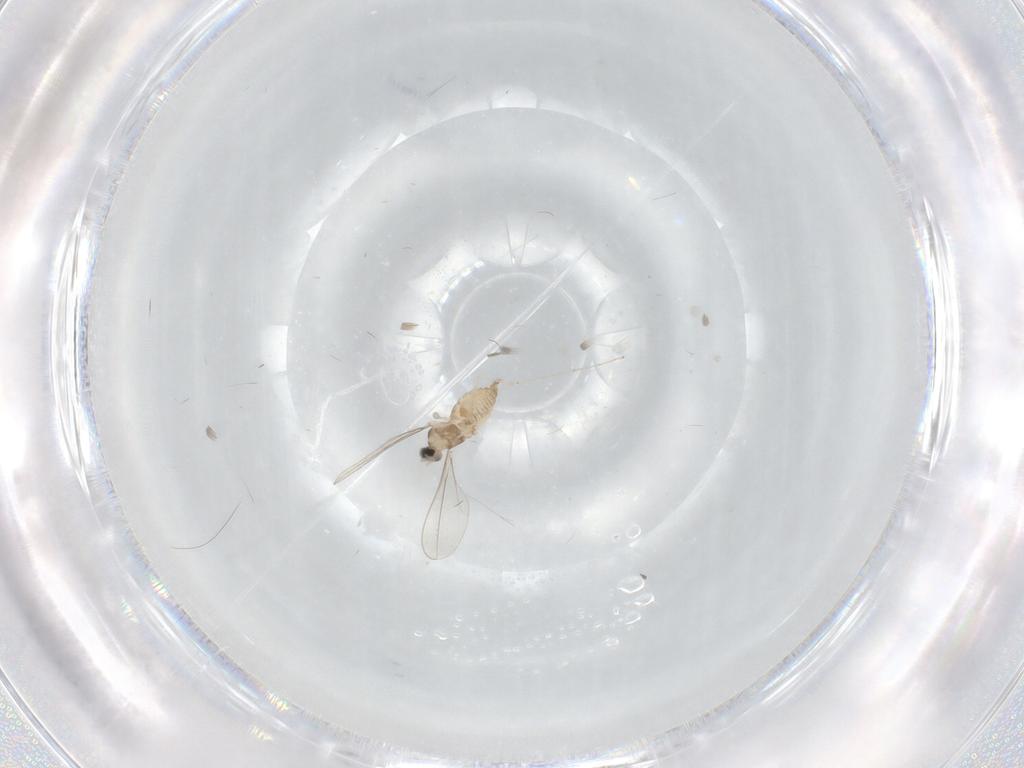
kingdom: Animalia
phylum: Arthropoda
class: Insecta
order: Diptera
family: Cecidomyiidae
